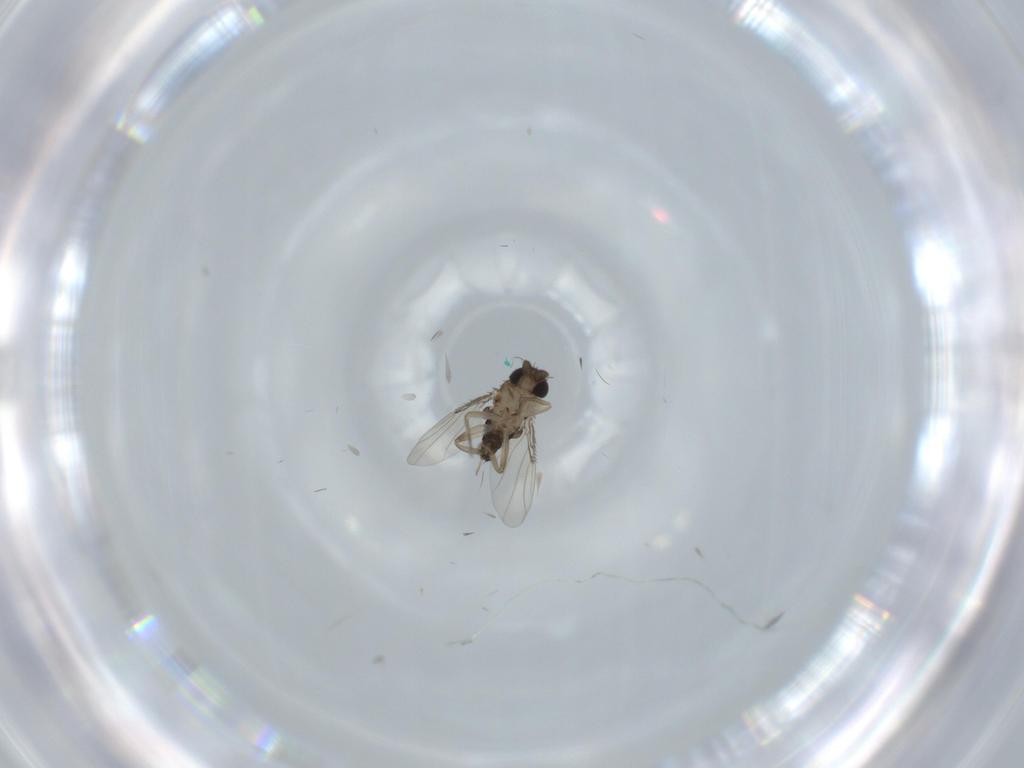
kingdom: Animalia
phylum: Arthropoda
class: Insecta
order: Diptera
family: Phoridae
